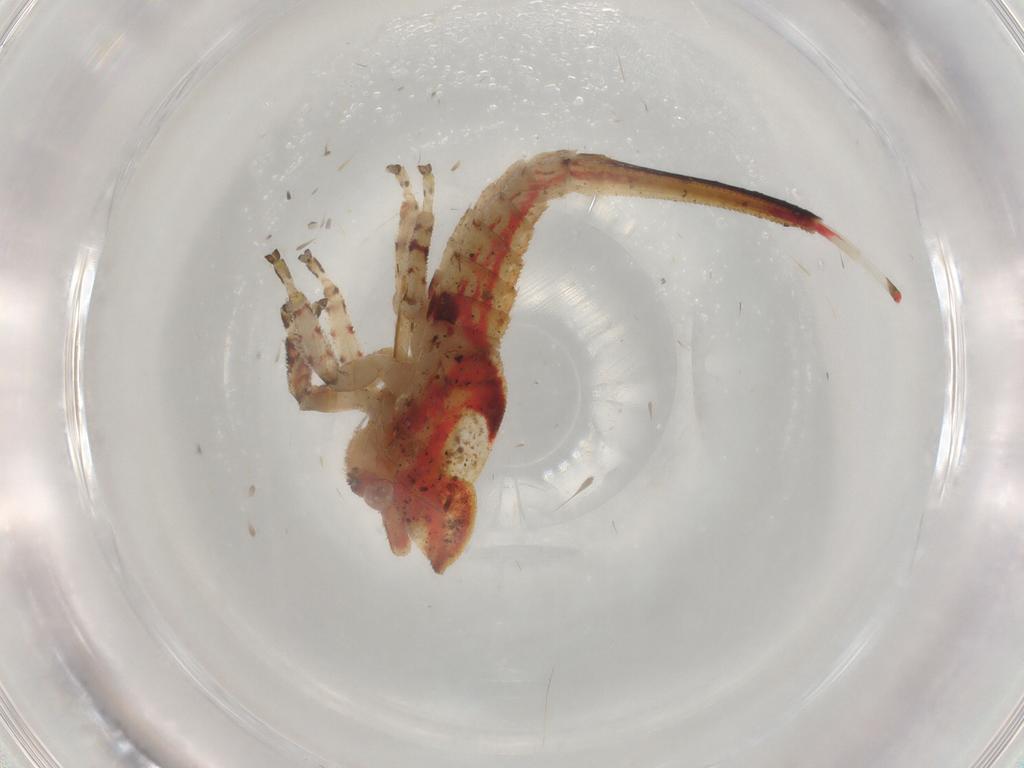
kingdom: Animalia
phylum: Arthropoda
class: Insecta
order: Hemiptera
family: Membracidae
